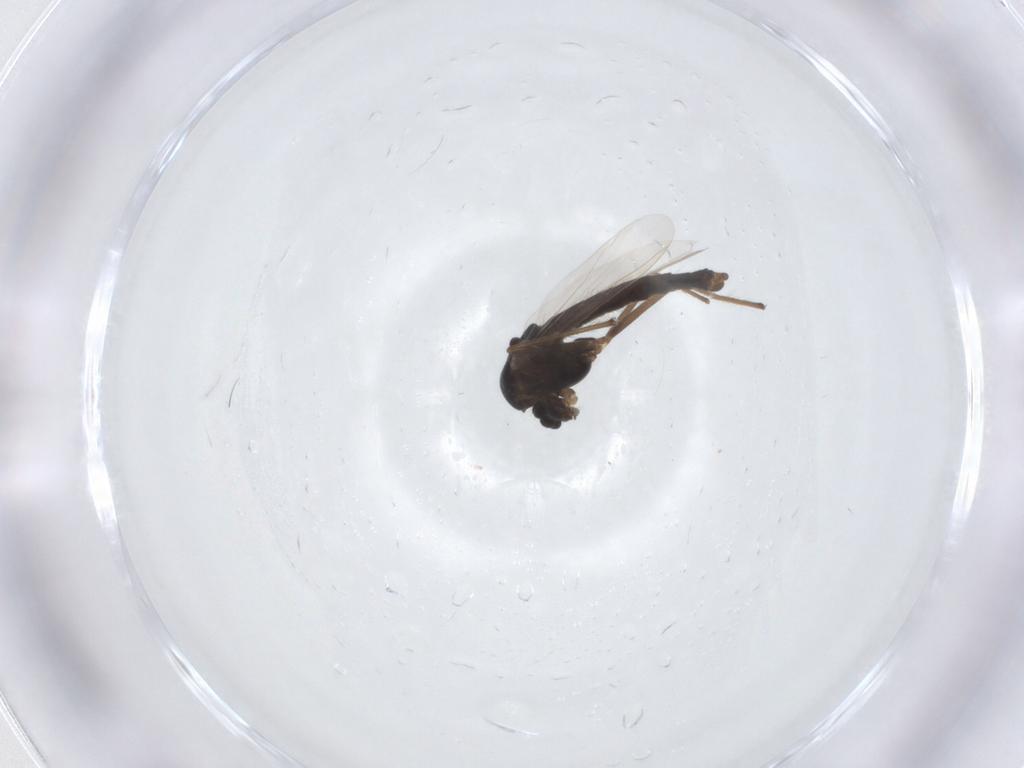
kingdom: Animalia
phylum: Arthropoda
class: Insecta
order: Diptera
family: Chironomidae
